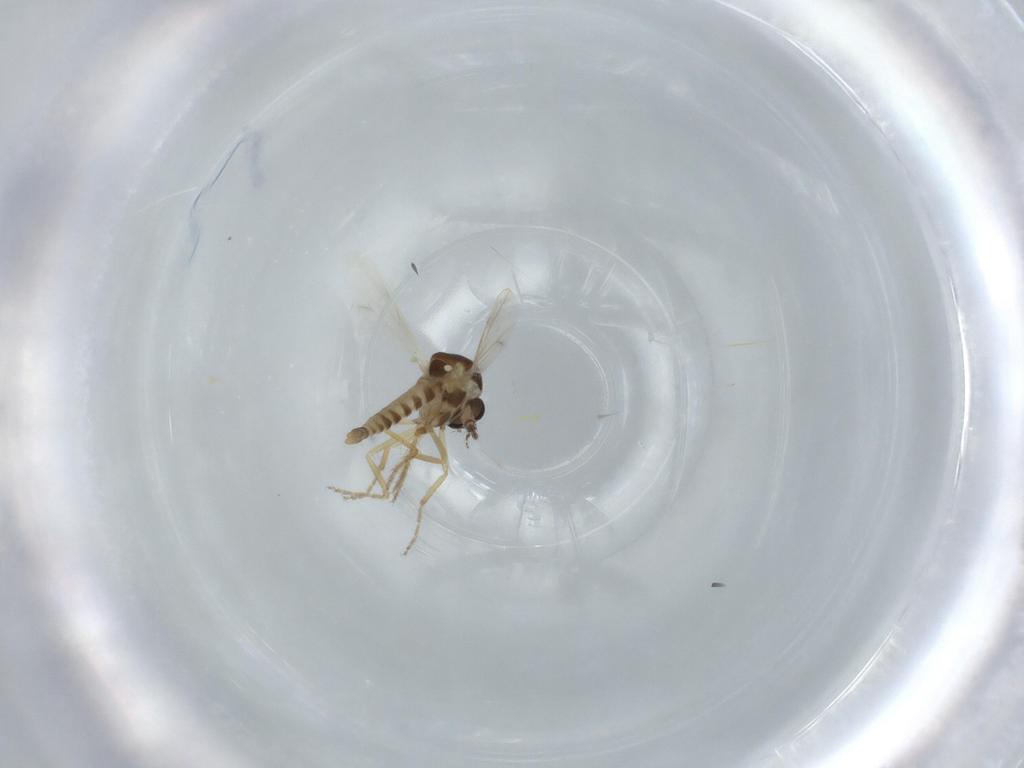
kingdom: Animalia
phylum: Arthropoda
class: Insecta
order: Diptera
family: Ceratopogonidae
